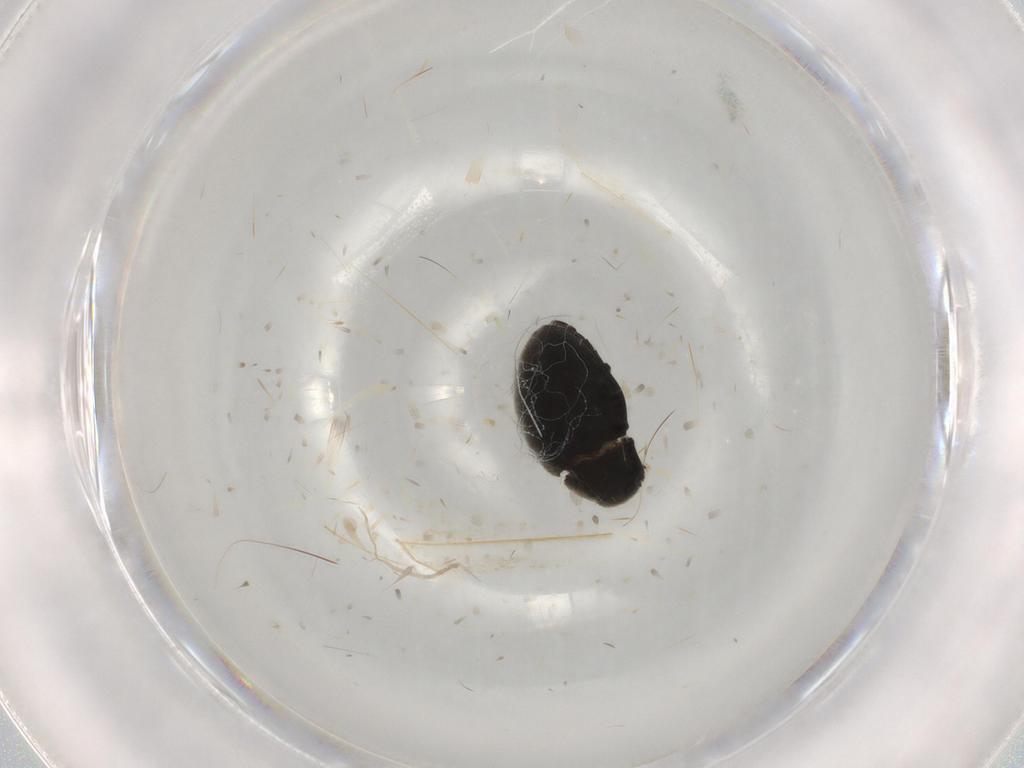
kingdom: Animalia
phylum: Arthropoda
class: Insecta
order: Coleoptera
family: Limnichidae
